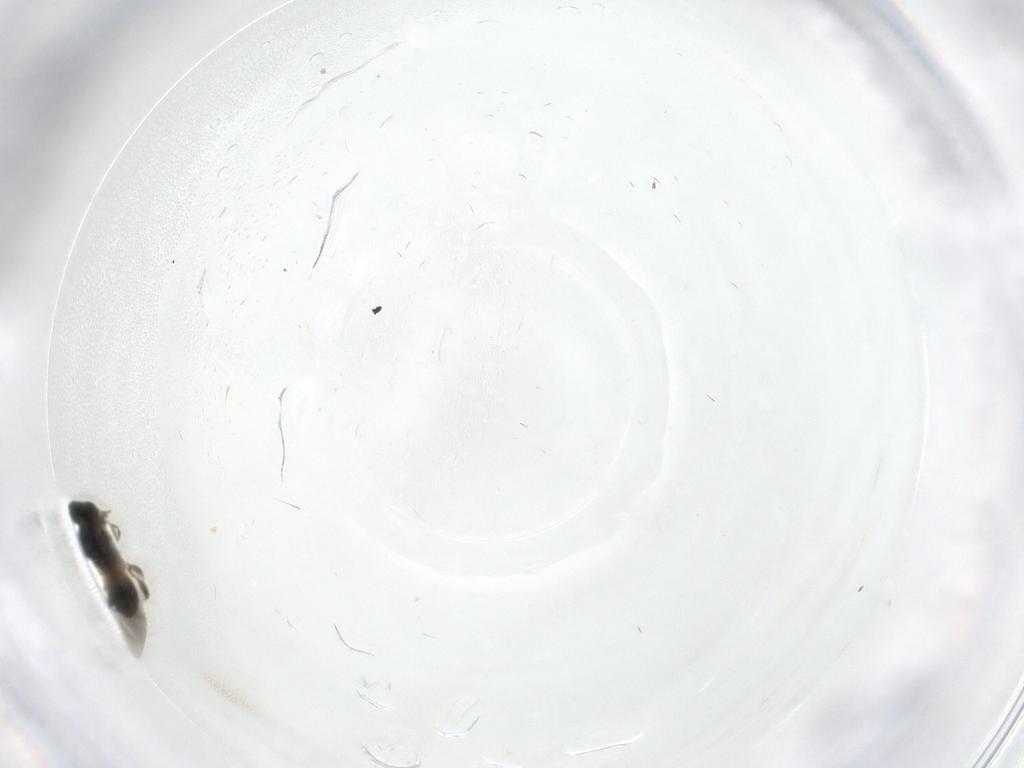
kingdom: Animalia
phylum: Arthropoda
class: Insecta
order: Hymenoptera
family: Platygastridae
